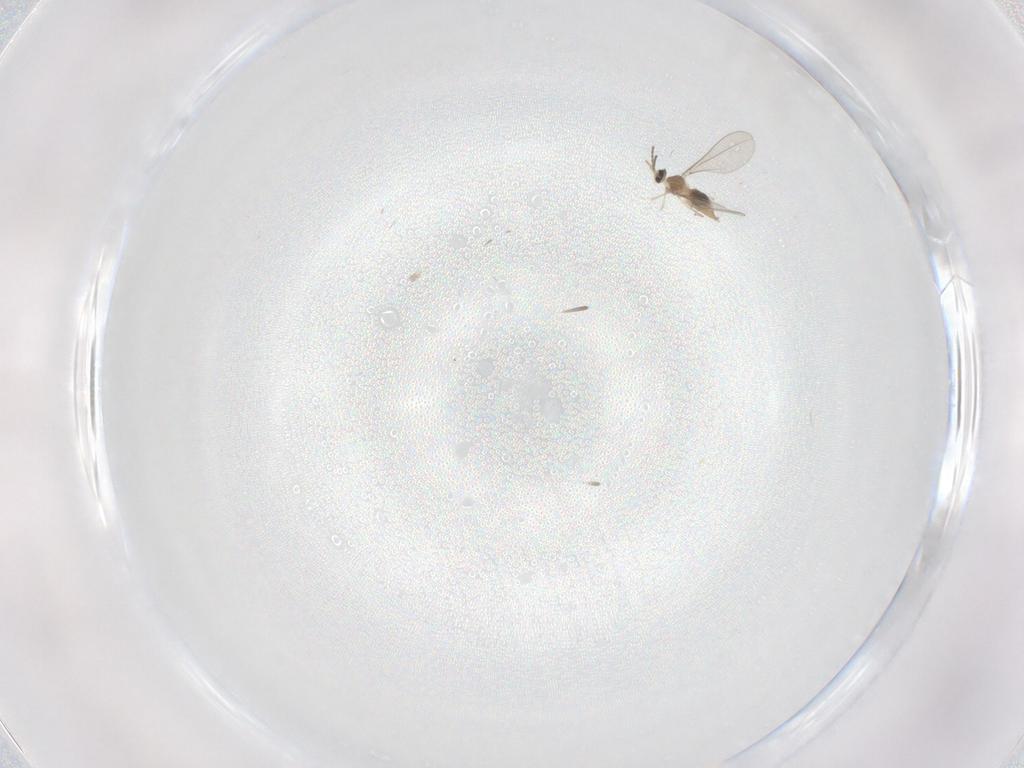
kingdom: Animalia
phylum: Arthropoda
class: Insecta
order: Diptera
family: Cecidomyiidae
